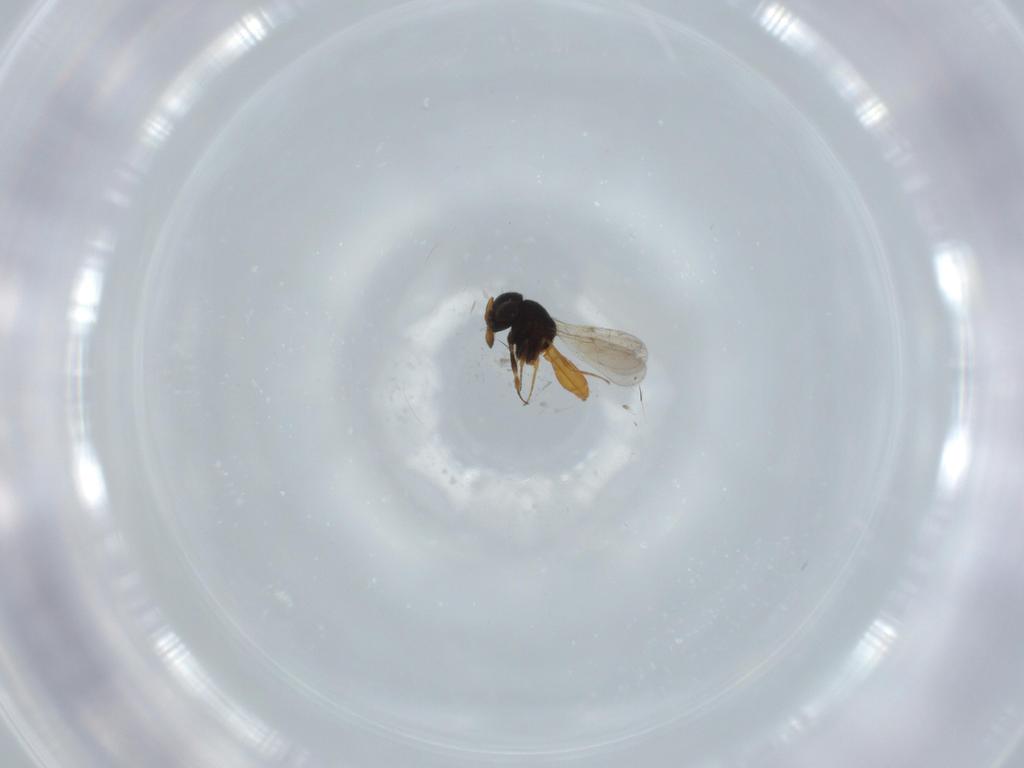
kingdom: Animalia
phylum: Arthropoda
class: Insecta
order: Hymenoptera
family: Scelionidae
